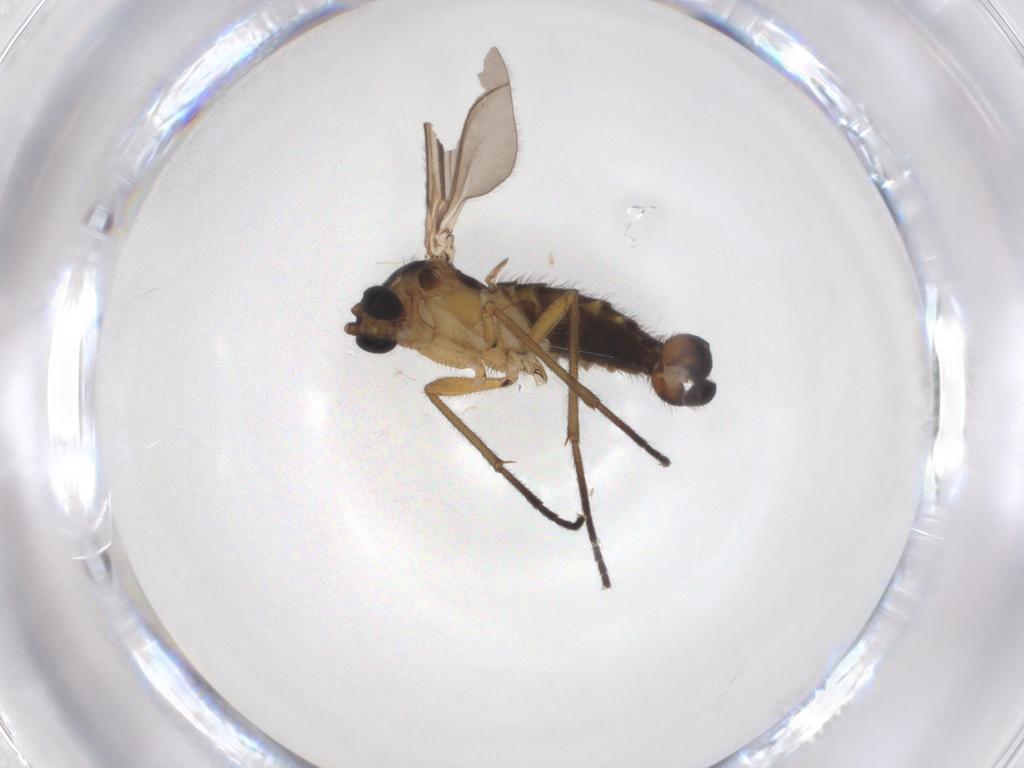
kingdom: Animalia
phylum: Arthropoda
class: Insecta
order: Diptera
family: Sciaridae
